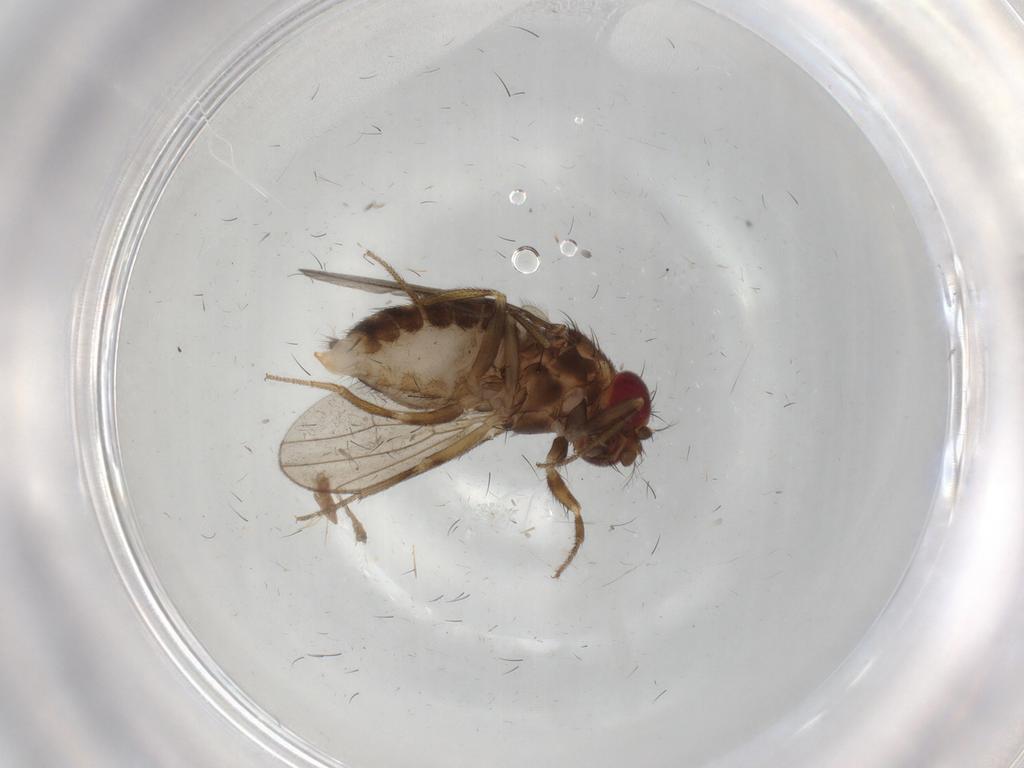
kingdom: Animalia
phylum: Arthropoda
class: Insecta
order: Diptera
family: Drosophilidae
